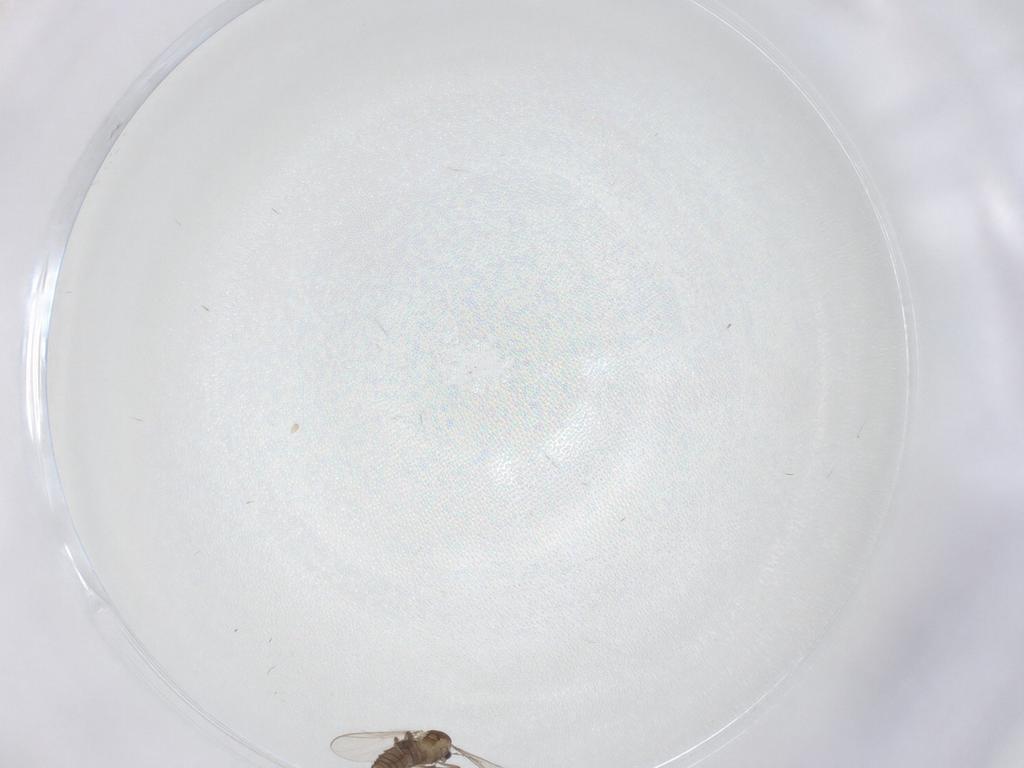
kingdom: Animalia
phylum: Arthropoda
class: Insecta
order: Diptera
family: Chironomidae
